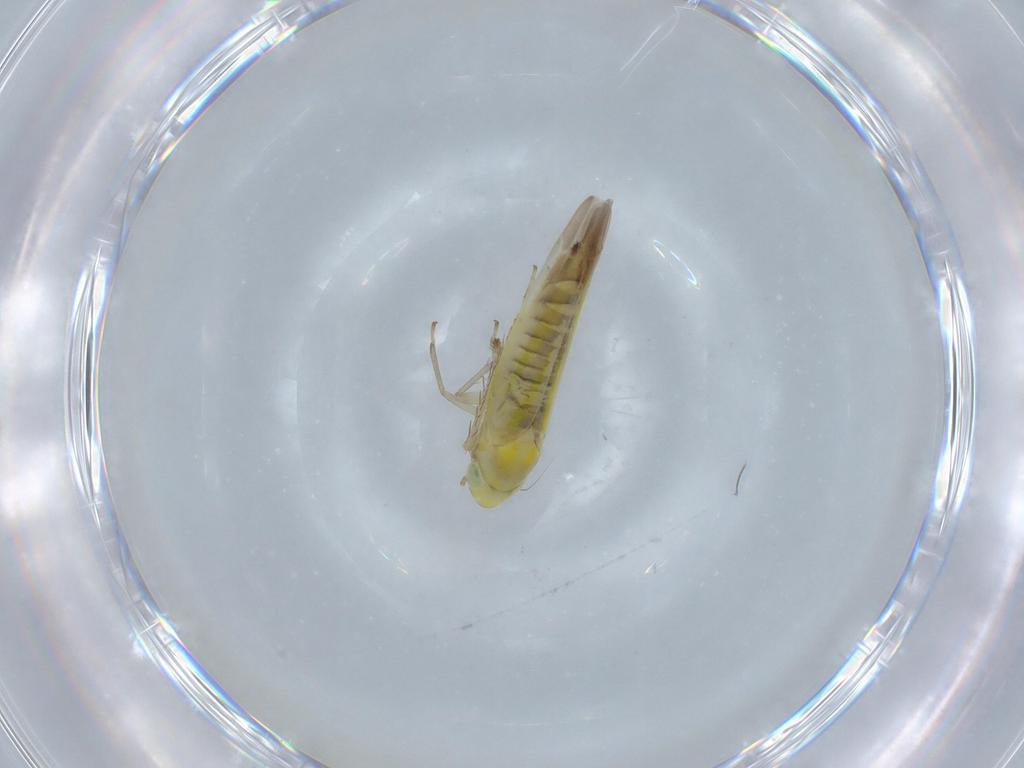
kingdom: Animalia
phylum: Arthropoda
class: Insecta
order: Hemiptera
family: Cicadellidae
